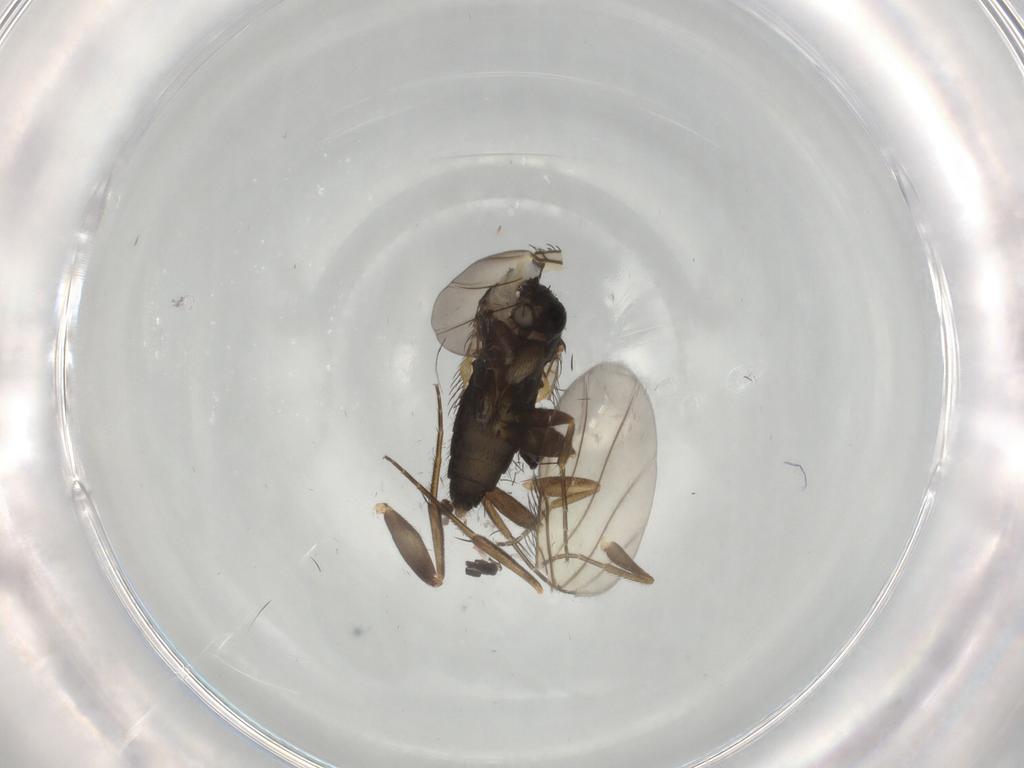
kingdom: Animalia
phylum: Arthropoda
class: Insecta
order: Diptera
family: Phoridae
